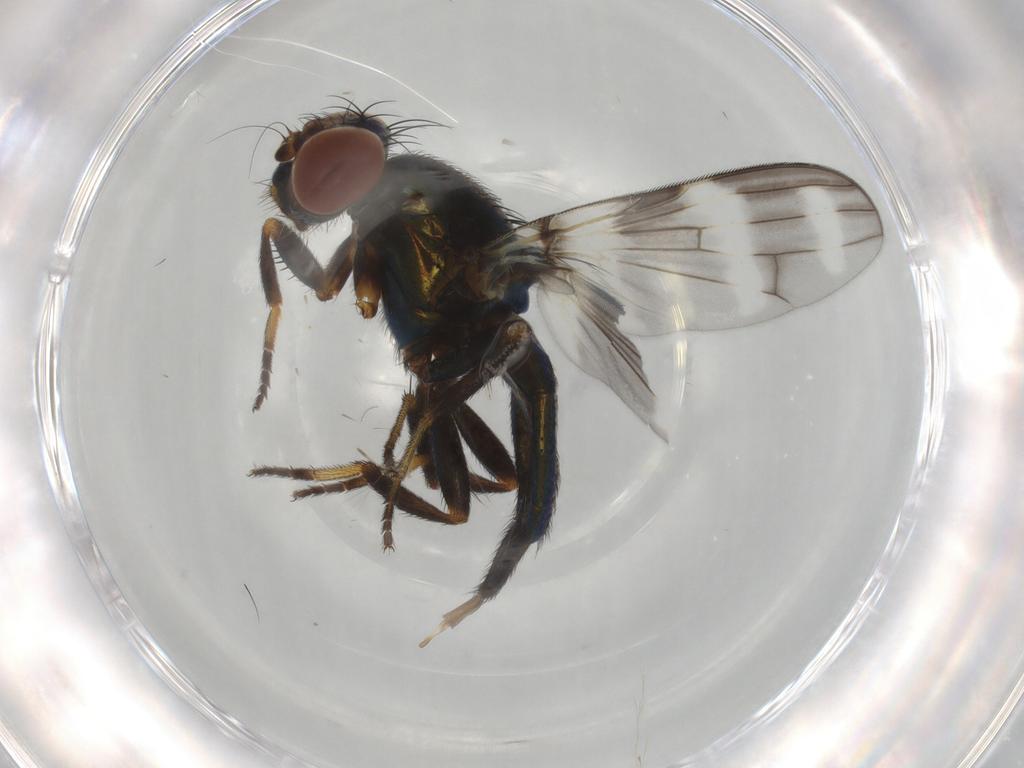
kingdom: Animalia
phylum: Arthropoda
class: Insecta
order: Diptera
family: Ulidiidae
